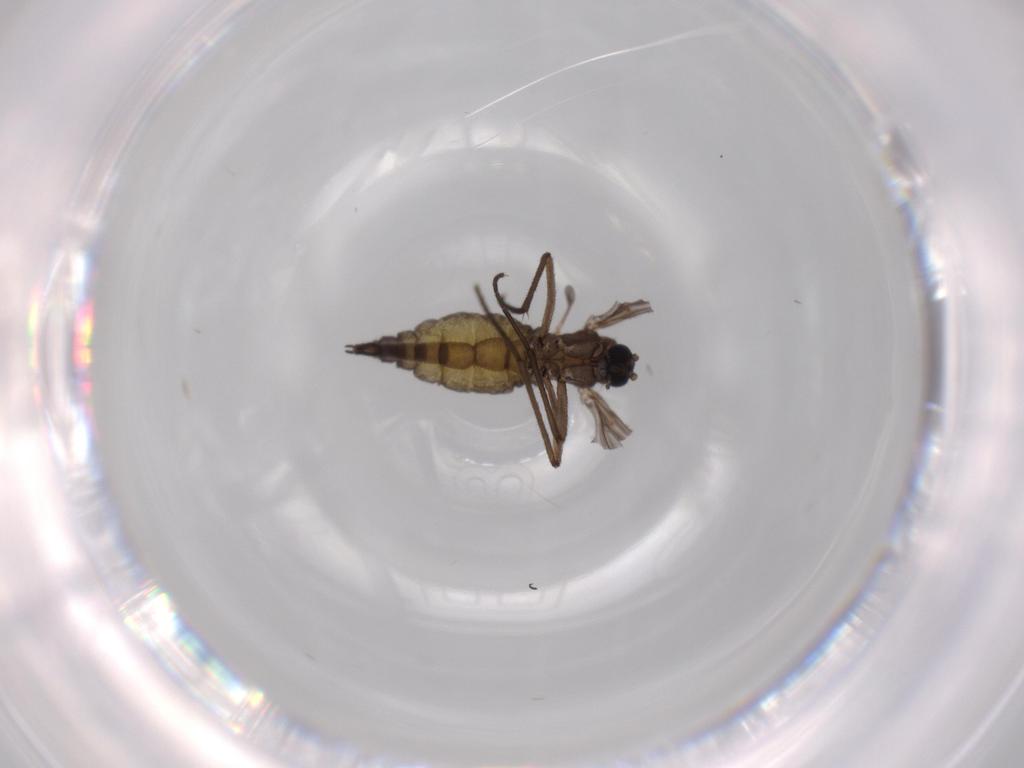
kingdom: Animalia
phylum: Arthropoda
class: Insecta
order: Diptera
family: Sciaridae
